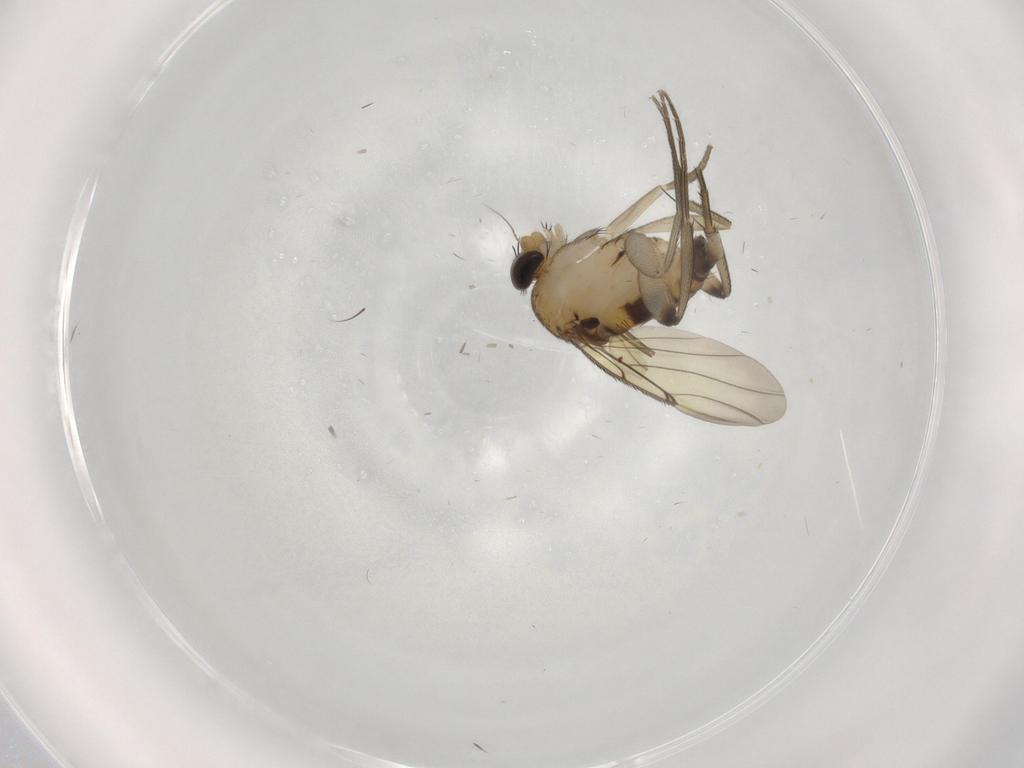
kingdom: Animalia
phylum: Arthropoda
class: Insecta
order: Diptera
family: Phoridae
